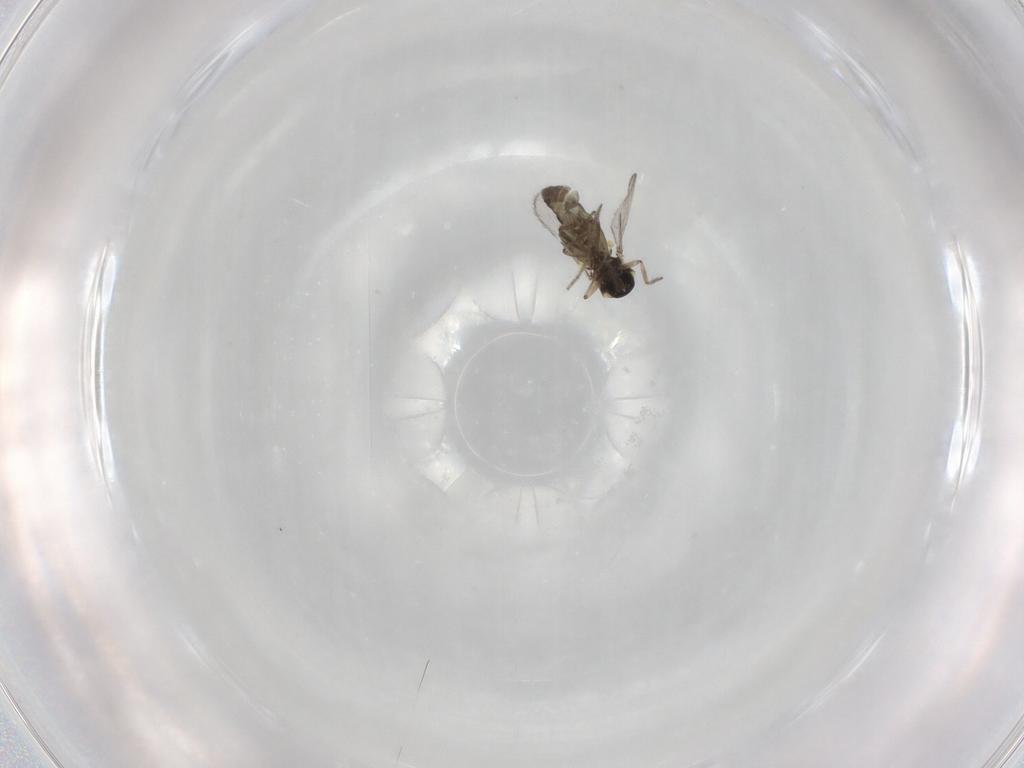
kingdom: Animalia
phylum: Arthropoda
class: Insecta
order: Diptera
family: Ceratopogonidae
